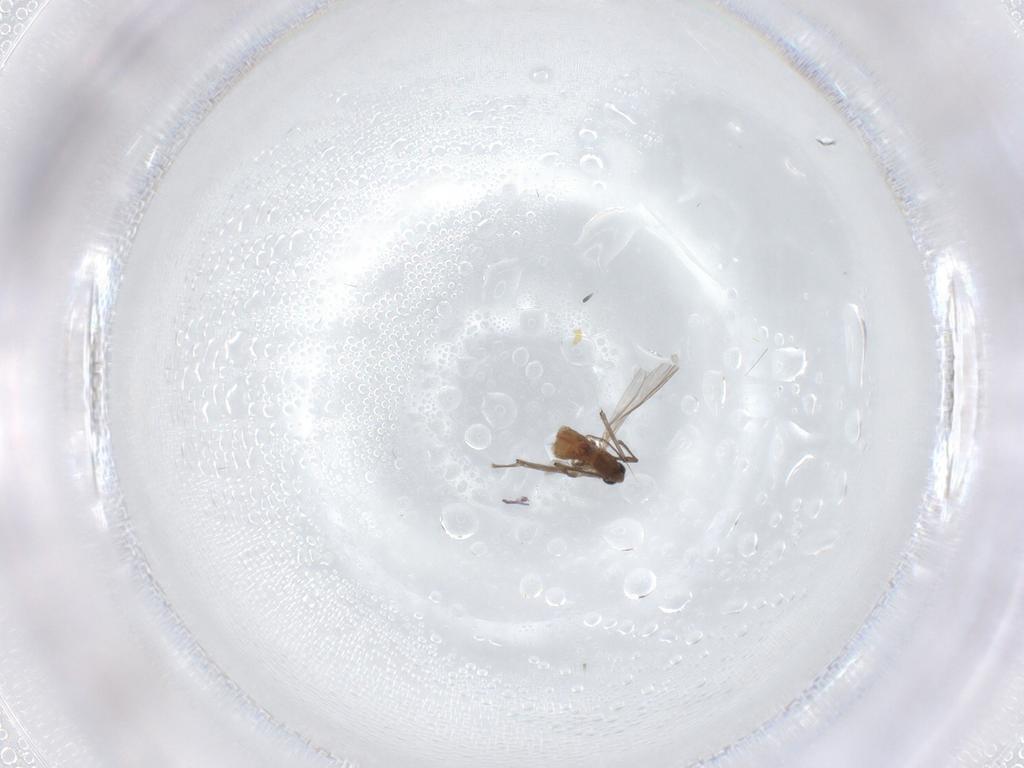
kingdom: Animalia
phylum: Arthropoda
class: Insecta
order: Diptera
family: Chironomidae
